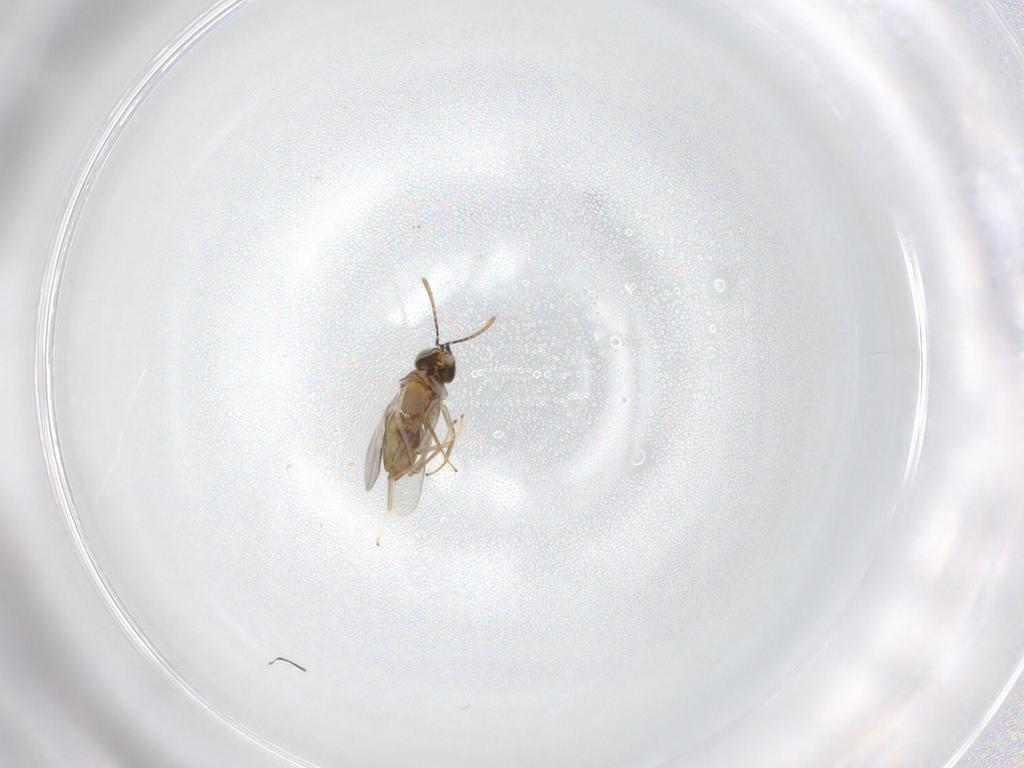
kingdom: Animalia
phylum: Arthropoda
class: Insecta
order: Hymenoptera
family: Encyrtidae
